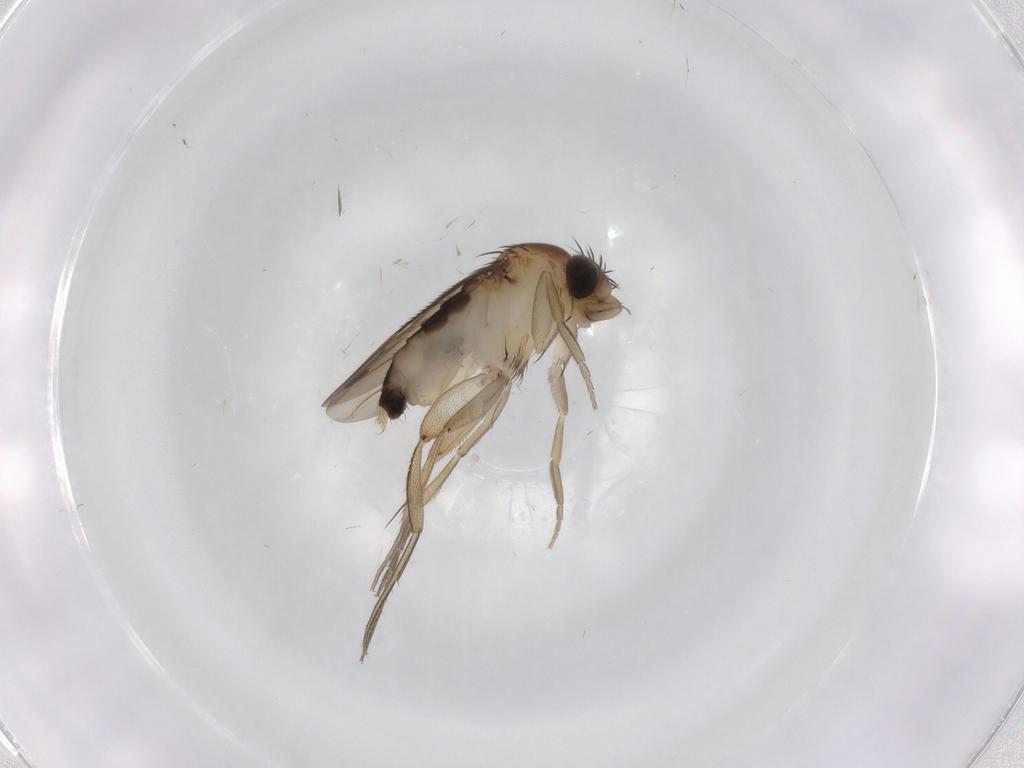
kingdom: Animalia
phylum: Arthropoda
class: Insecta
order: Diptera
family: Phoridae
